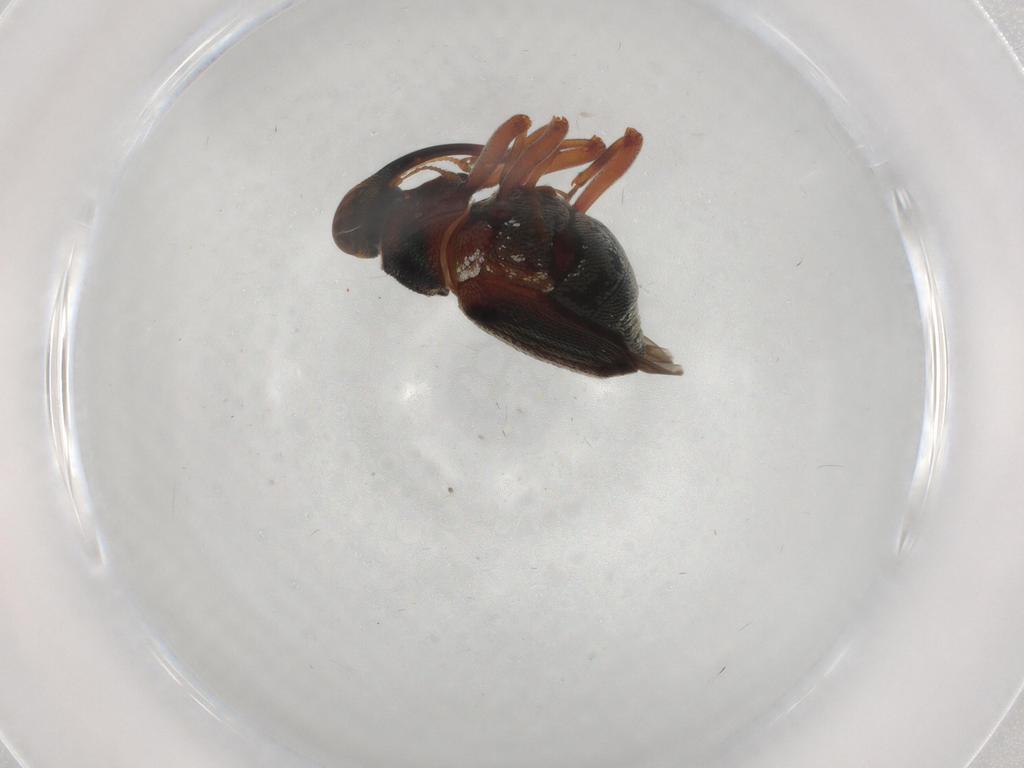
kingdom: Animalia
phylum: Arthropoda
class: Insecta
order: Coleoptera
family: Curculionidae
